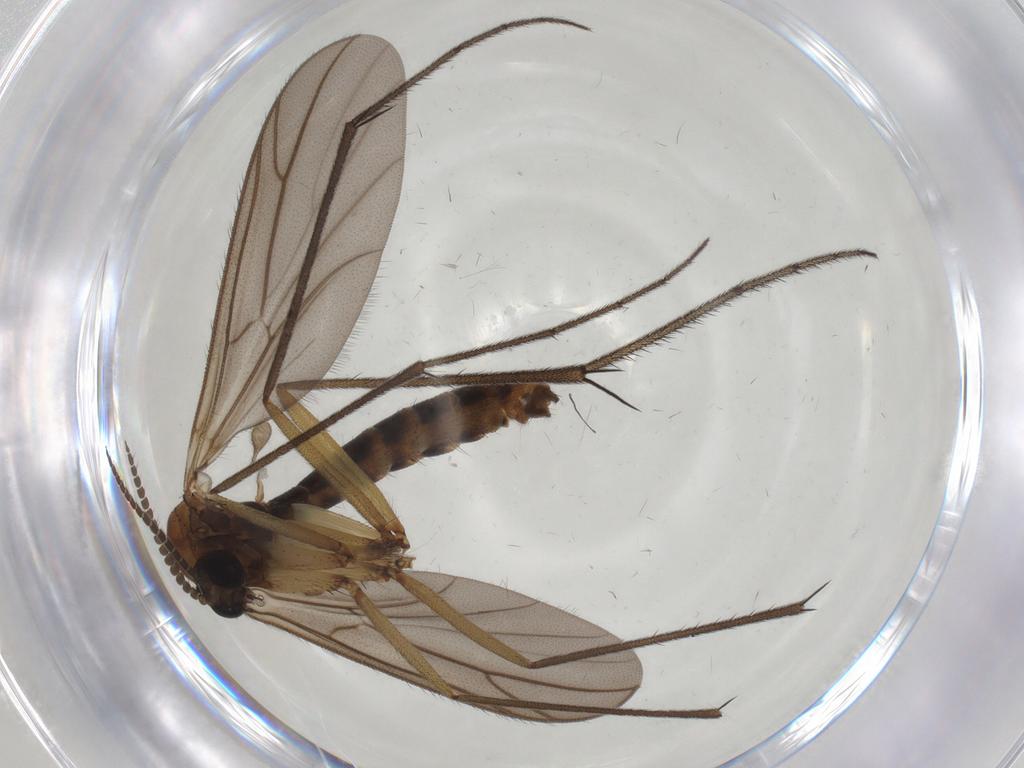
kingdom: Animalia
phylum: Arthropoda
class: Insecta
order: Diptera
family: Ditomyiidae
